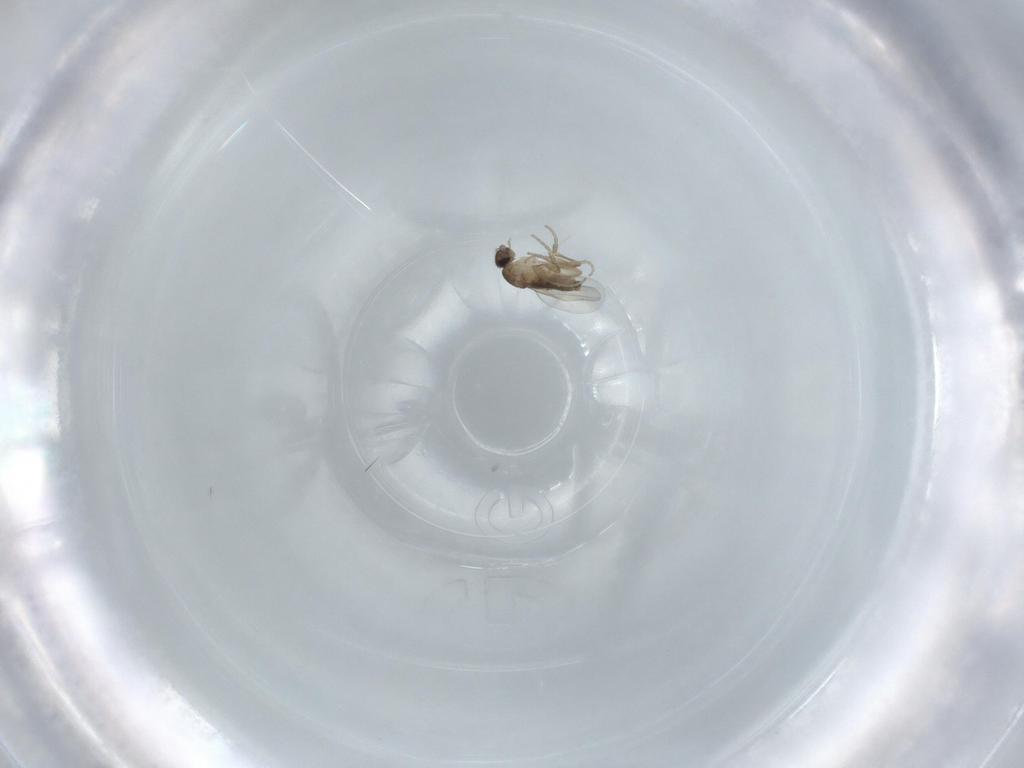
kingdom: Animalia
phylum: Arthropoda
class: Insecta
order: Diptera
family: Phoridae
